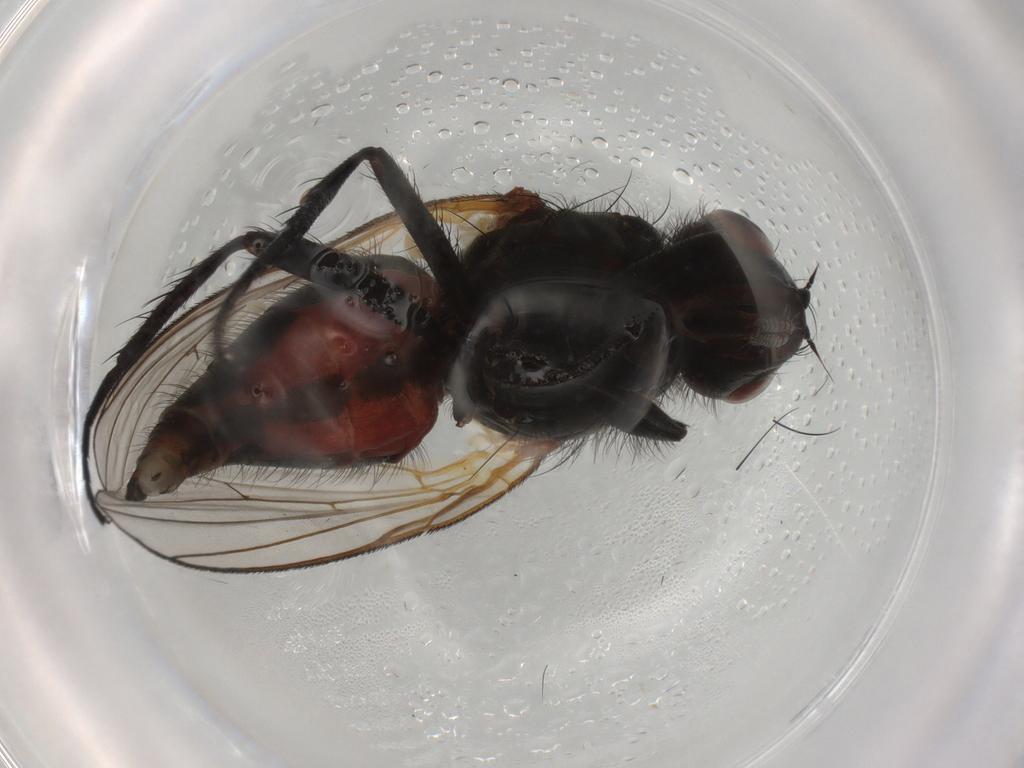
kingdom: Animalia
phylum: Arthropoda
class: Insecta
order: Diptera
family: Anthomyiidae
